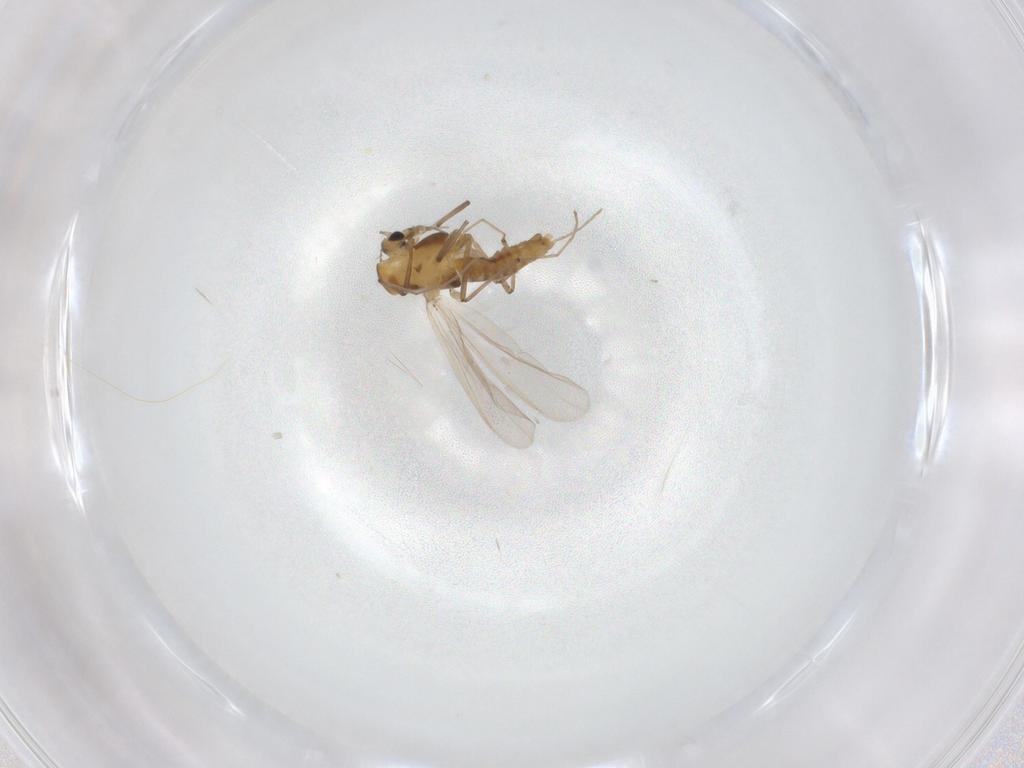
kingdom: Animalia
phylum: Arthropoda
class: Insecta
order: Diptera
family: Chironomidae
